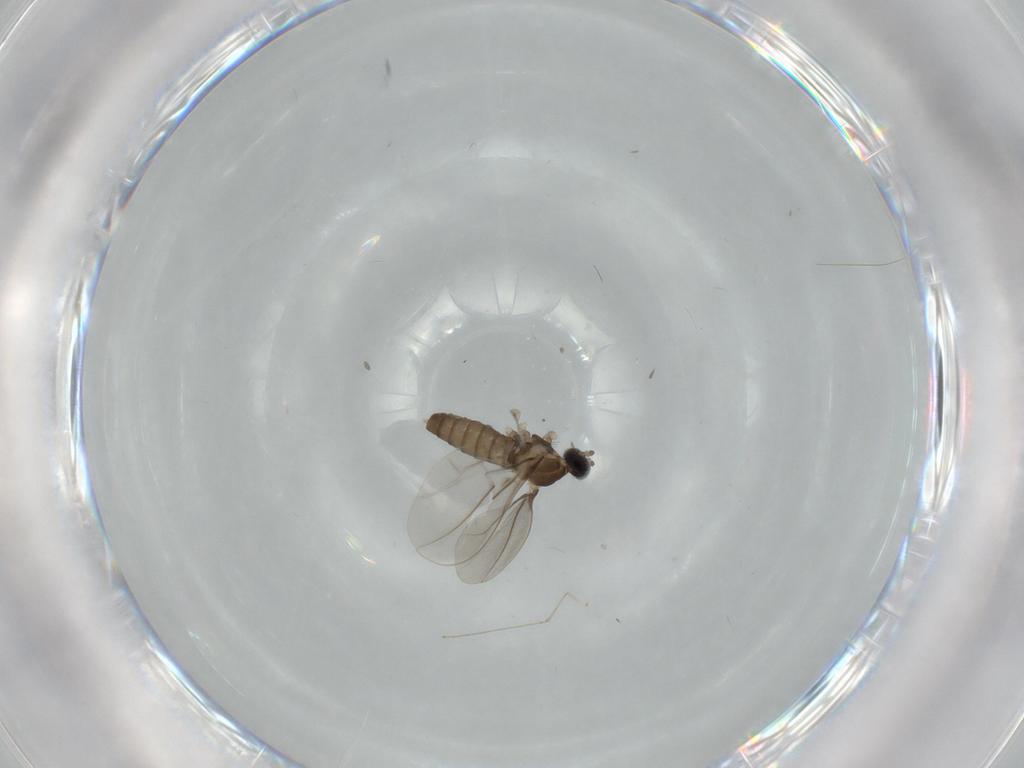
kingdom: Animalia
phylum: Arthropoda
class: Insecta
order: Diptera
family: Cecidomyiidae
